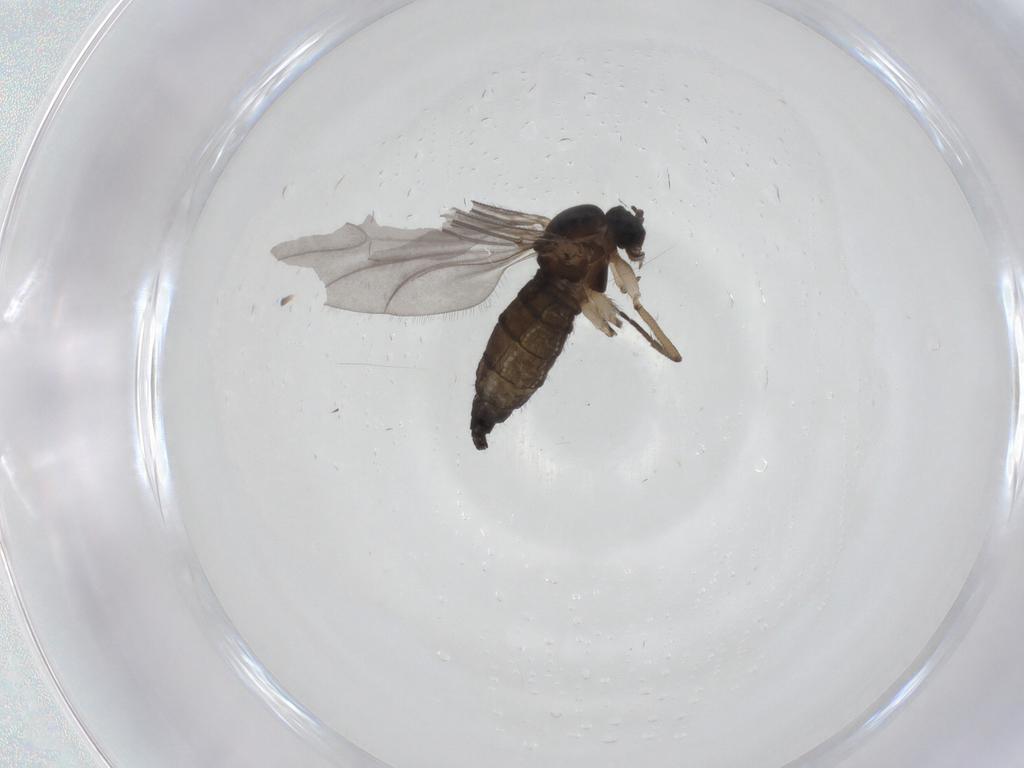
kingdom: Animalia
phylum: Arthropoda
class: Insecta
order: Diptera
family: Sciaridae
